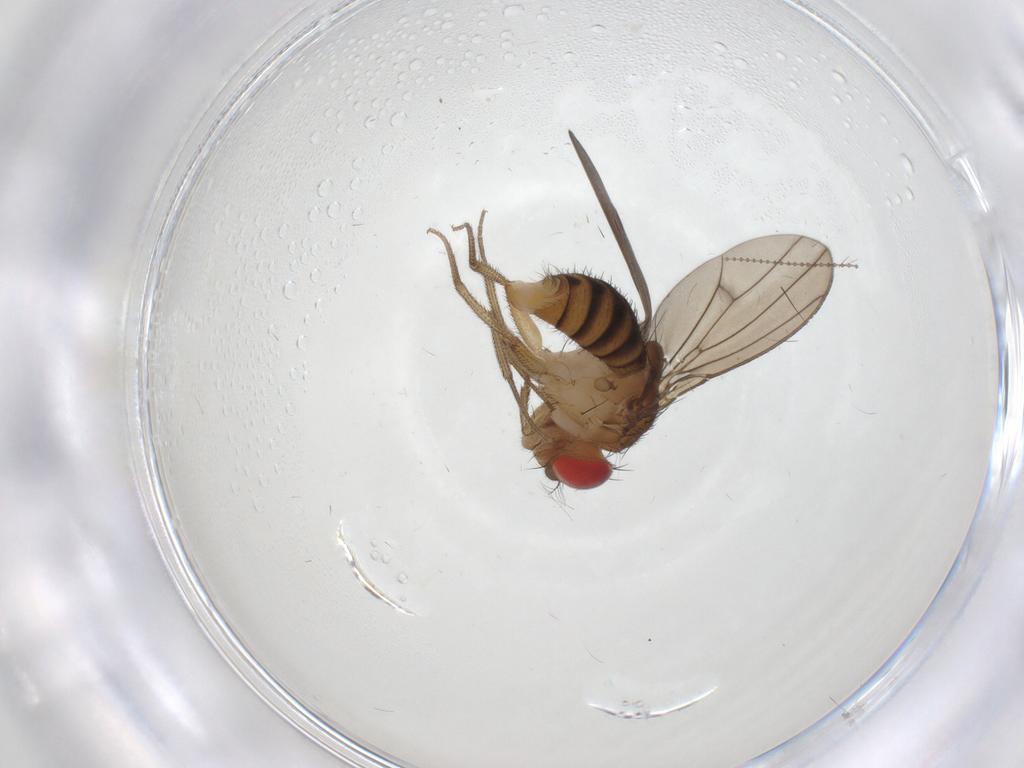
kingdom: Animalia
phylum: Arthropoda
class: Insecta
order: Diptera
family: Drosophilidae
